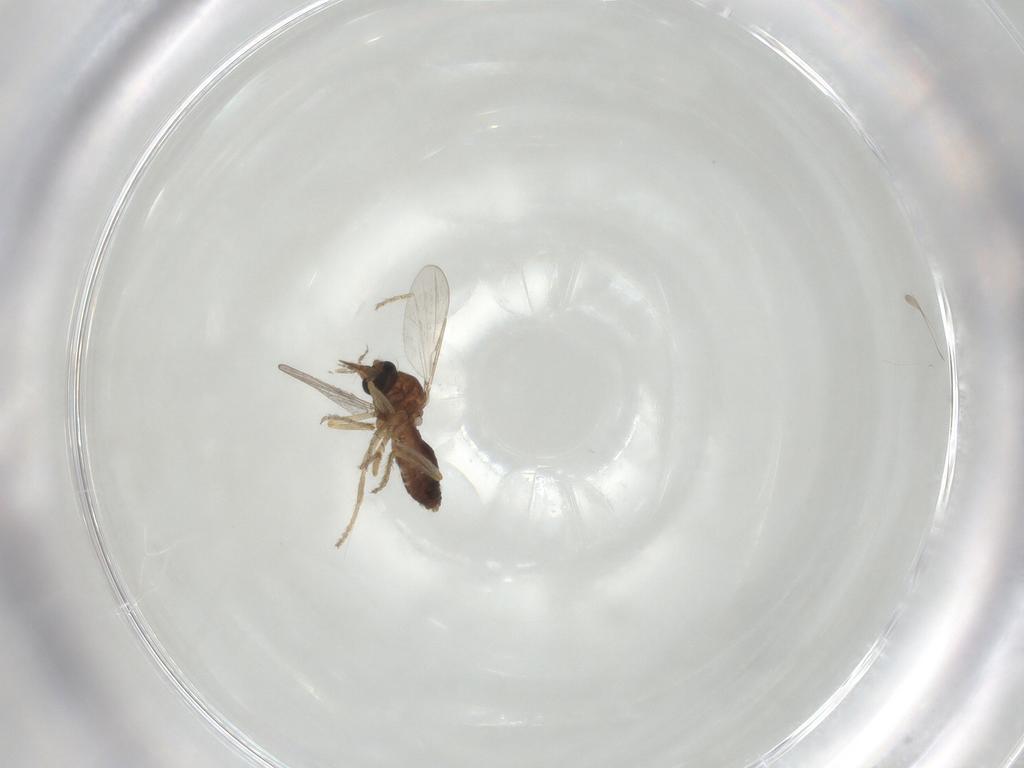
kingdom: Animalia
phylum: Arthropoda
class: Insecta
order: Diptera
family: Ceratopogonidae
